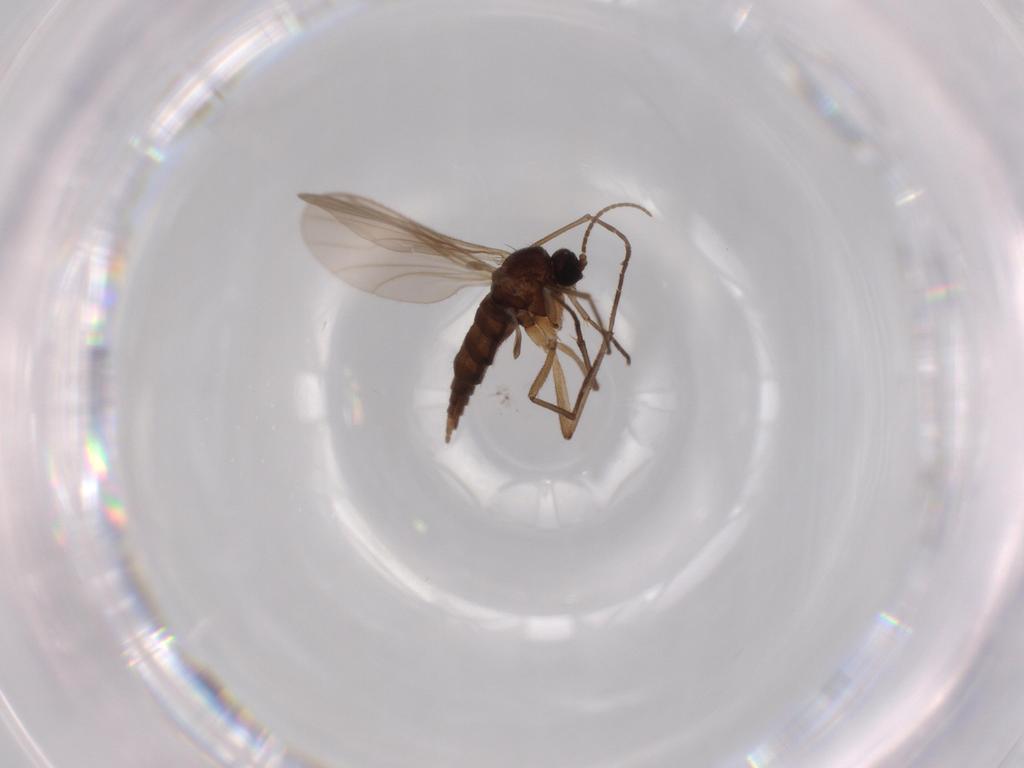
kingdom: Animalia
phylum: Arthropoda
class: Insecta
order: Diptera
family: Sciaridae
